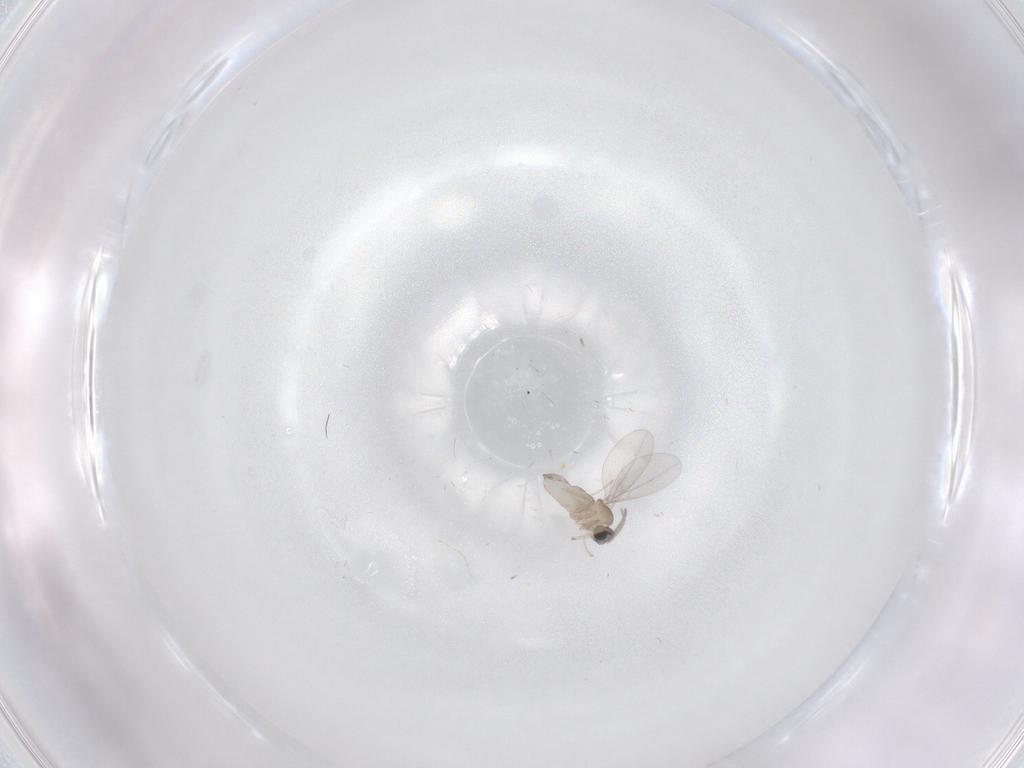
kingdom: Animalia
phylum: Arthropoda
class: Insecta
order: Diptera
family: Cecidomyiidae
